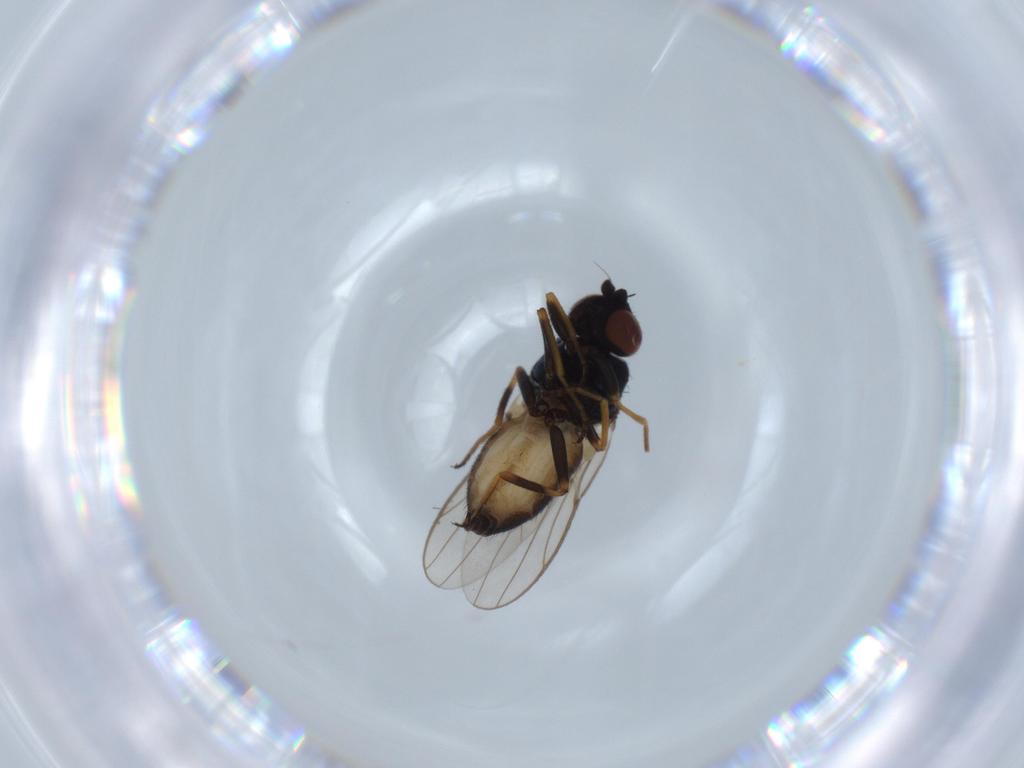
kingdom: Animalia
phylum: Arthropoda
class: Insecta
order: Diptera
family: Chloropidae
